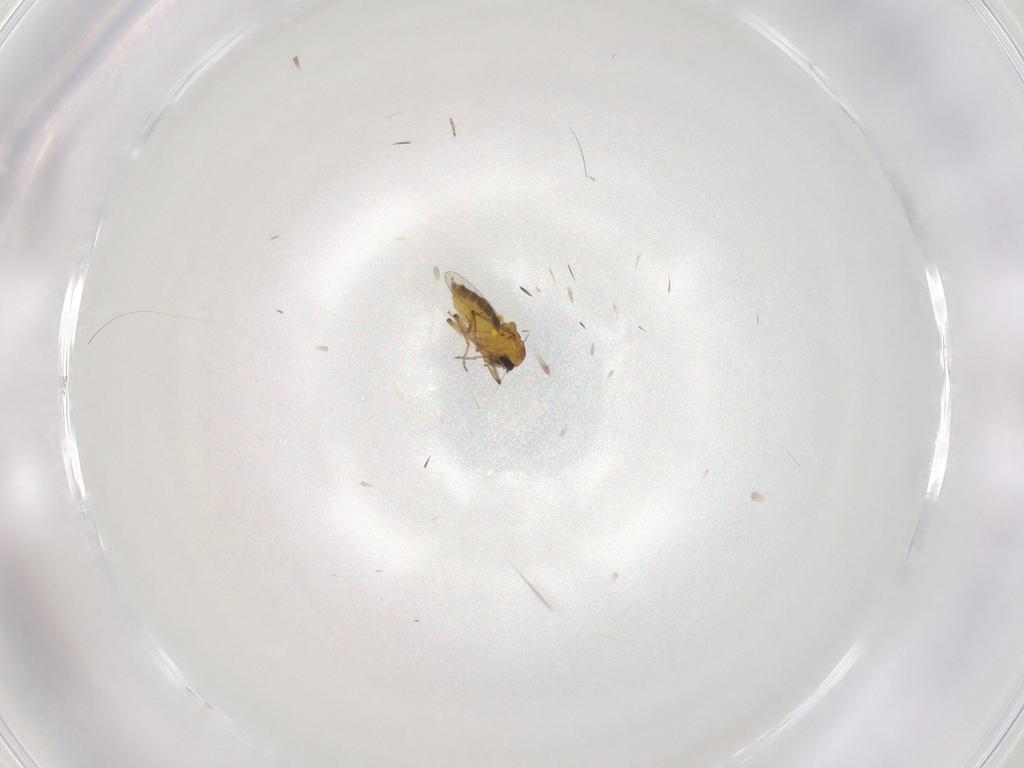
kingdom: Animalia
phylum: Arthropoda
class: Insecta
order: Diptera
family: Ceratopogonidae
